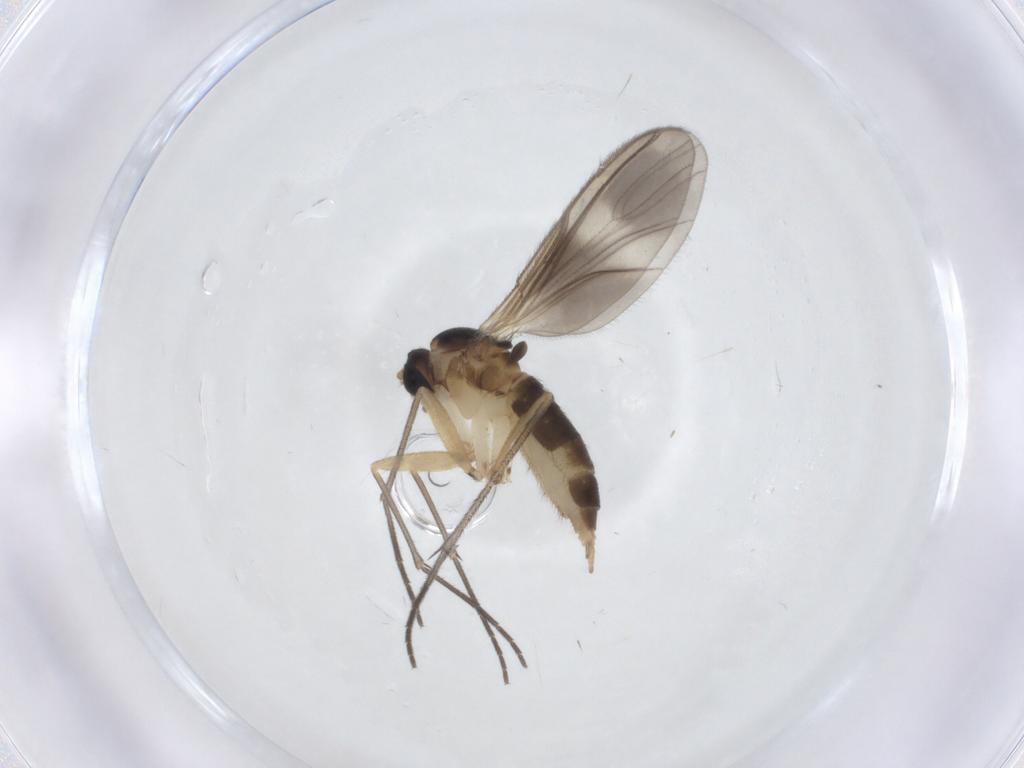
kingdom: Animalia
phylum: Arthropoda
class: Insecta
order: Diptera
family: Sciaridae
